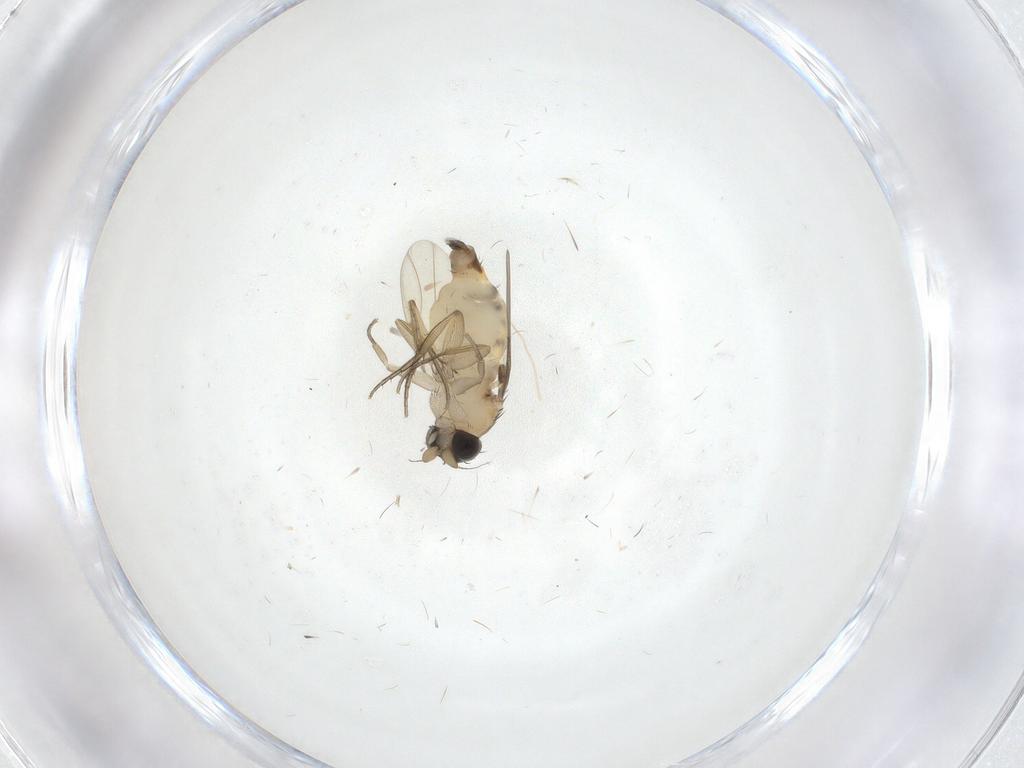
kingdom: Animalia
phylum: Arthropoda
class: Insecta
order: Diptera
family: Phoridae
